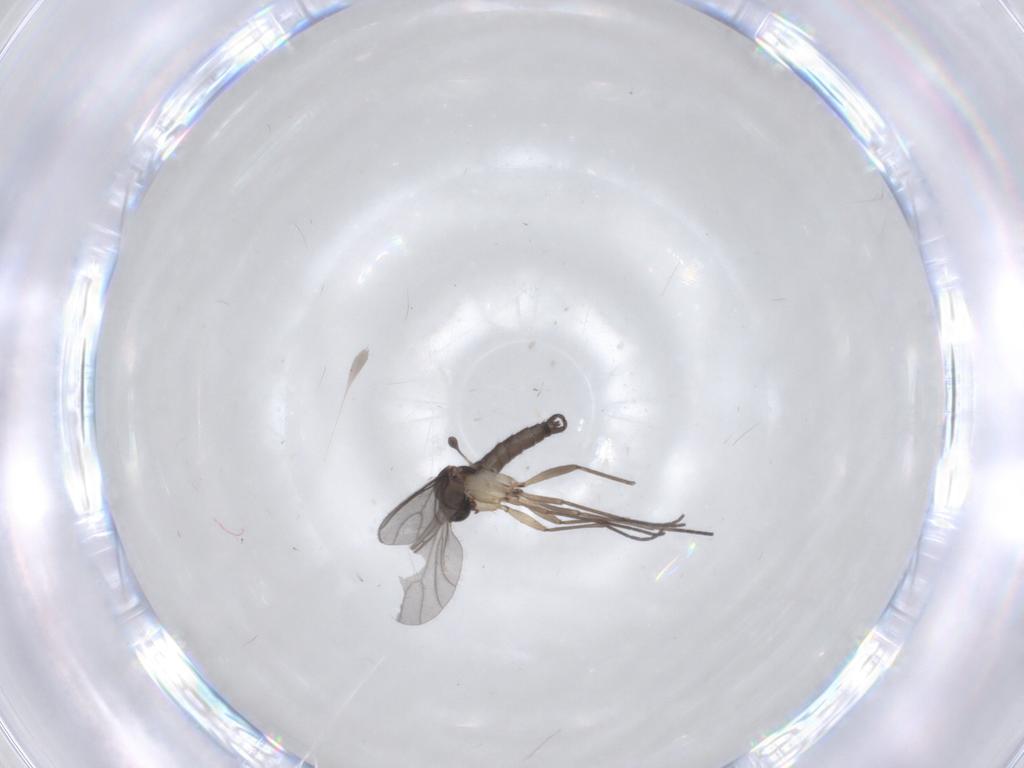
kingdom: Animalia
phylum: Arthropoda
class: Insecta
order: Diptera
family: Sciaridae
